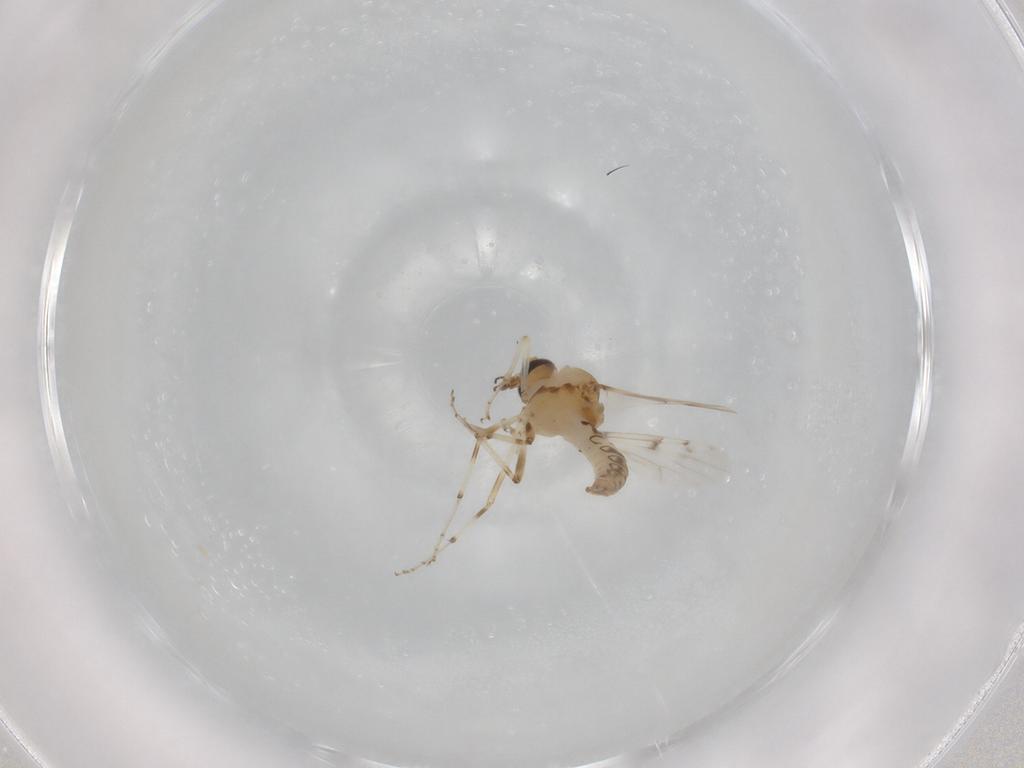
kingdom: Animalia
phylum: Arthropoda
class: Insecta
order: Diptera
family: Ceratopogonidae
